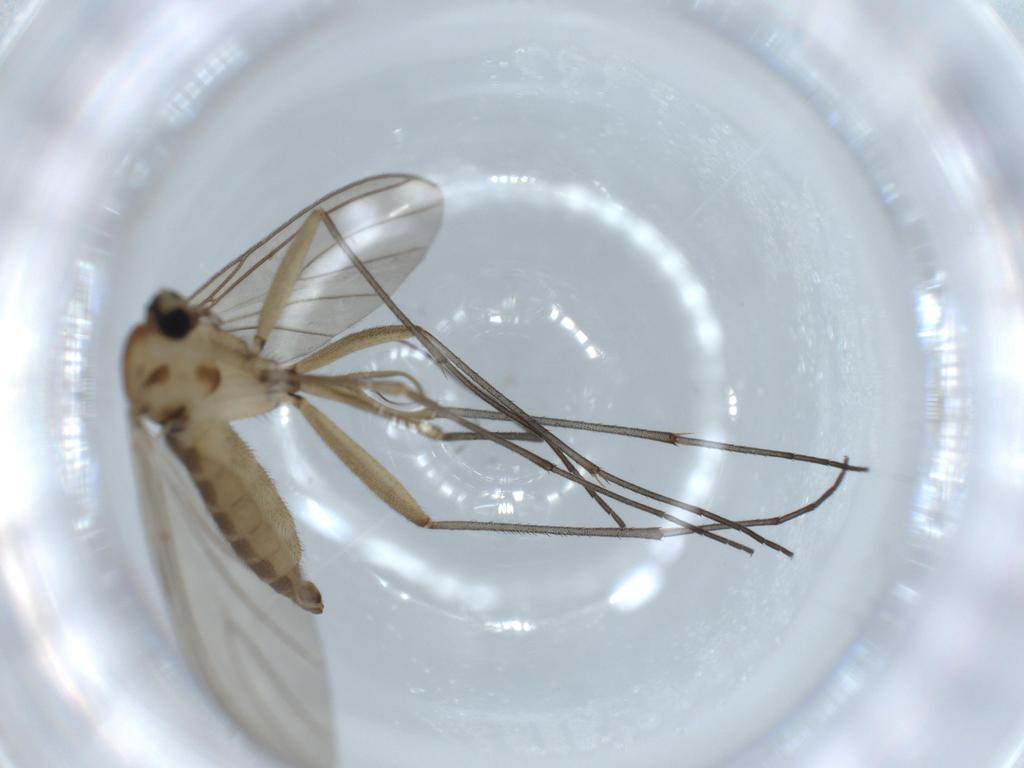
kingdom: Animalia
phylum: Arthropoda
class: Insecta
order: Diptera
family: Sciaridae
